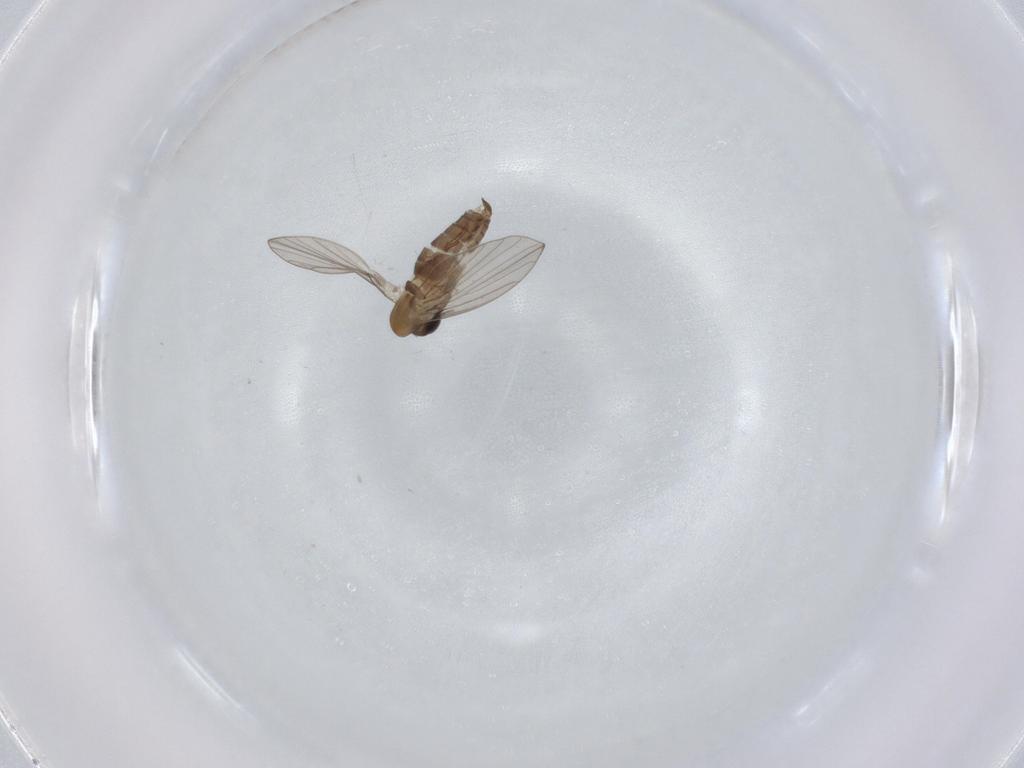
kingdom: Animalia
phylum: Arthropoda
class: Insecta
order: Diptera
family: Psychodidae
